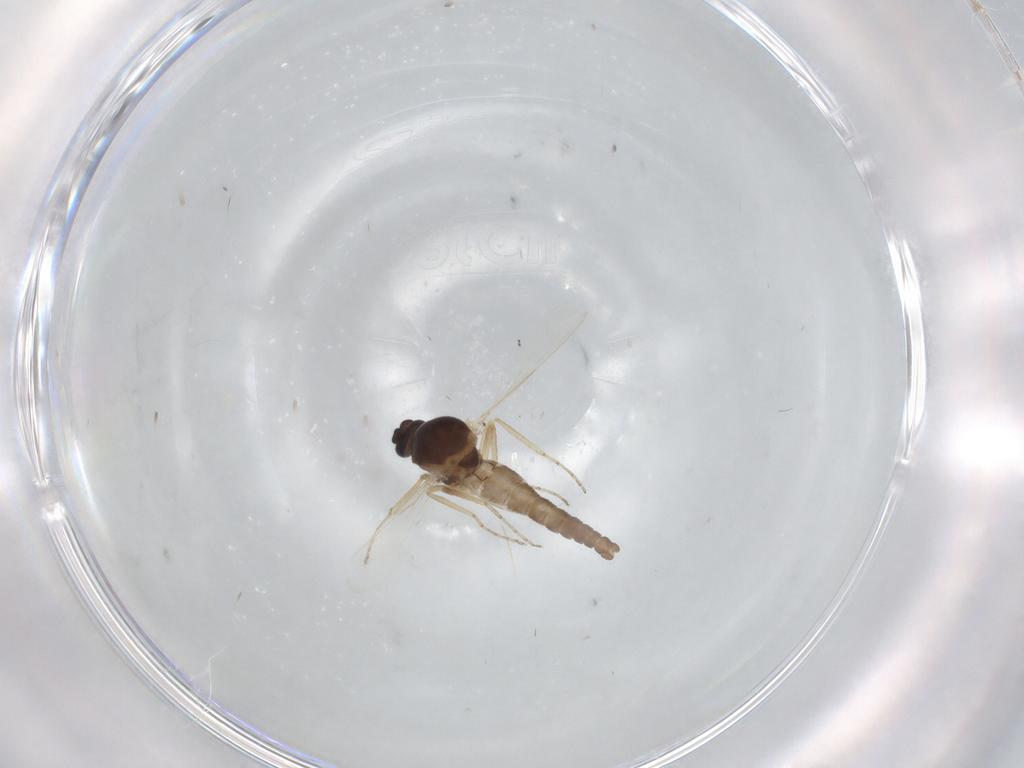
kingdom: Animalia
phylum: Arthropoda
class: Insecta
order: Diptera
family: Ceratopogonidae
